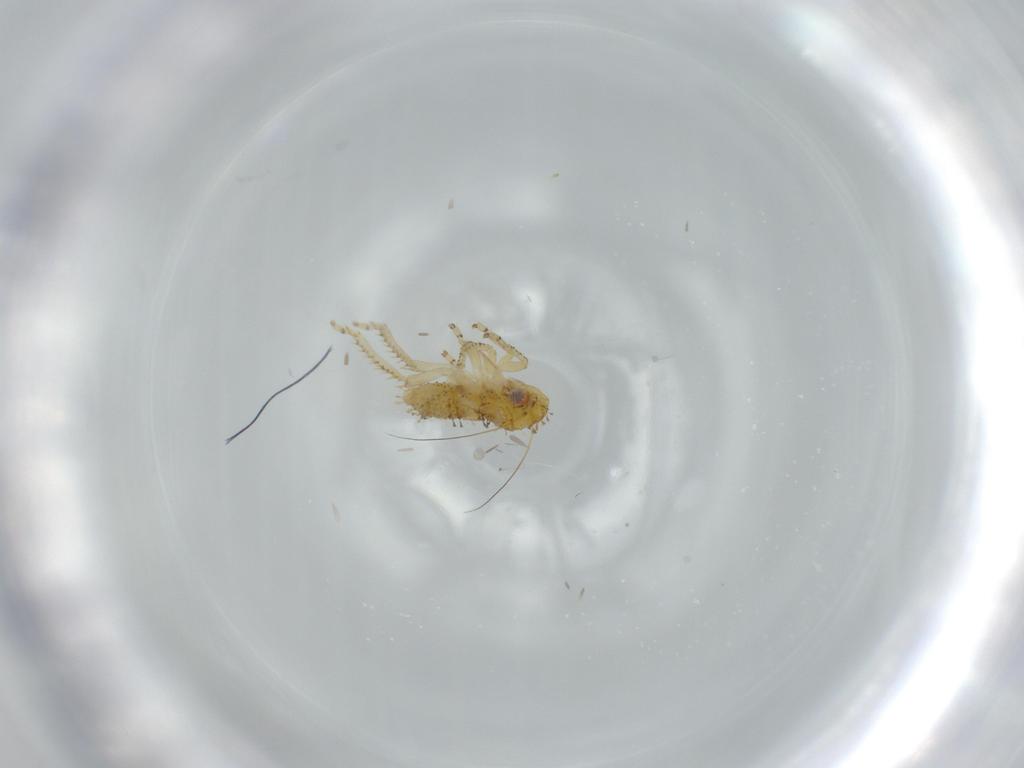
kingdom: Animalia
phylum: Arthropoda
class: Insecta
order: Hemiptera
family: Cicadellidae
